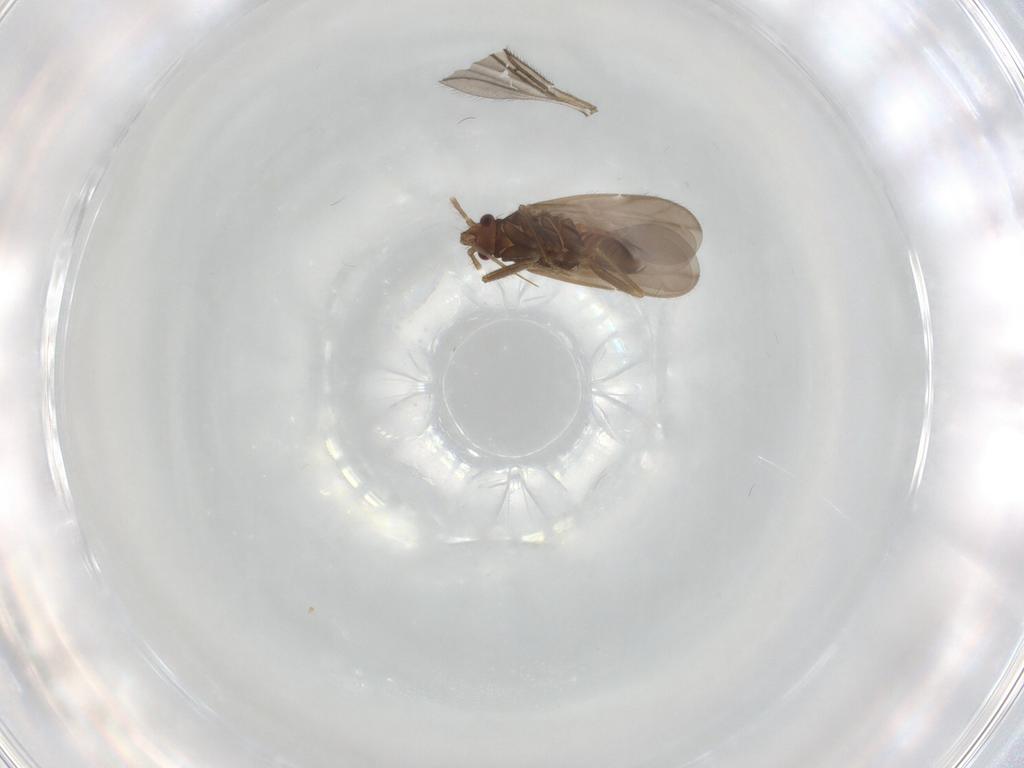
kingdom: Animalia
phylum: Arthropoda
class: Insecta
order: Hemiptera
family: Ceratocombidae
